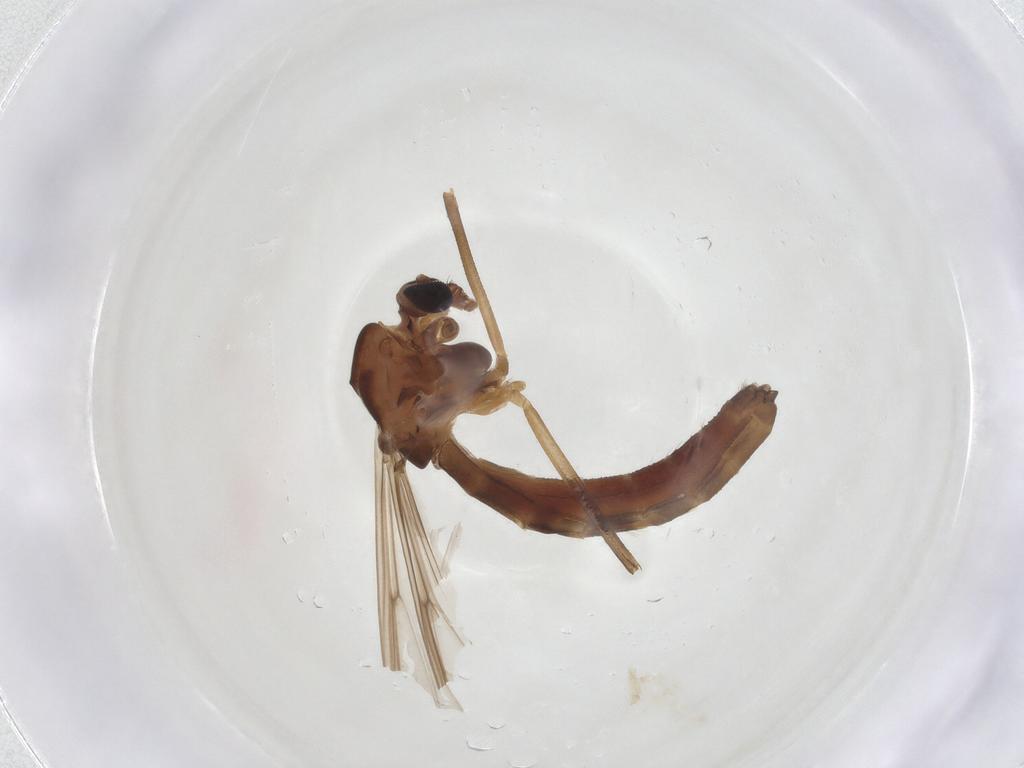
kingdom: Animalia
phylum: Arthropoda
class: Insecta
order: Diptera
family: Chironomidae
